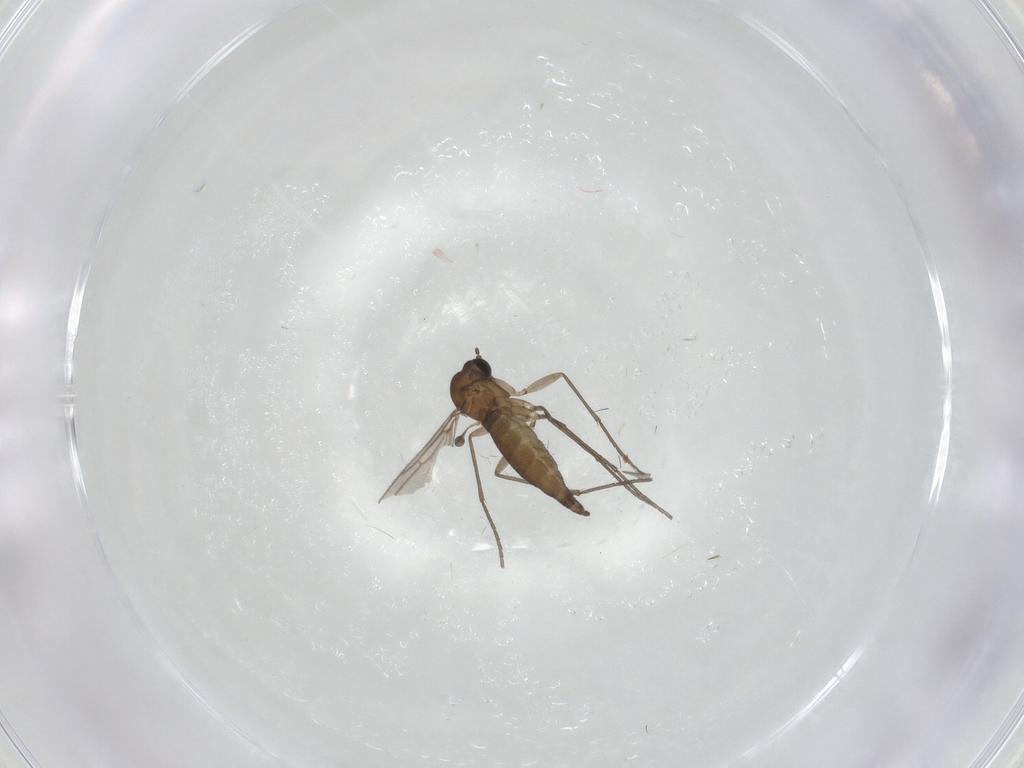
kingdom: Animalia
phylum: Arthropoda
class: Insecta
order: Diptera
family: Sciaridae
